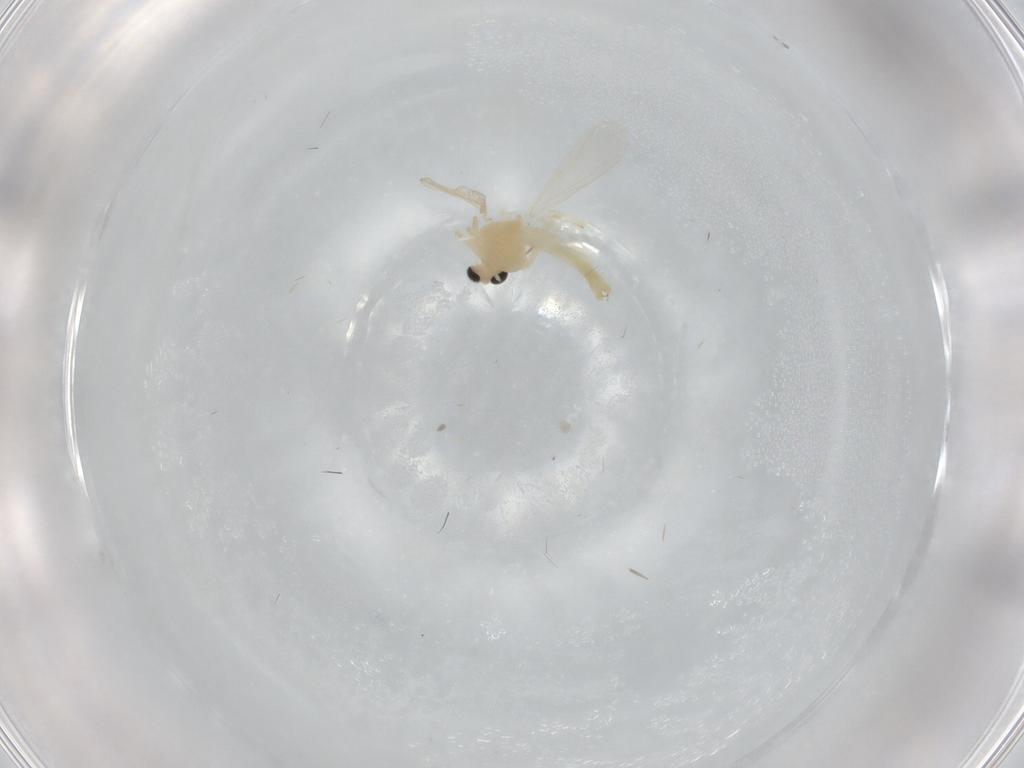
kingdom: Animalia
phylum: Arthropoda
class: Insecta
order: Diptera
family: Chironomidae
